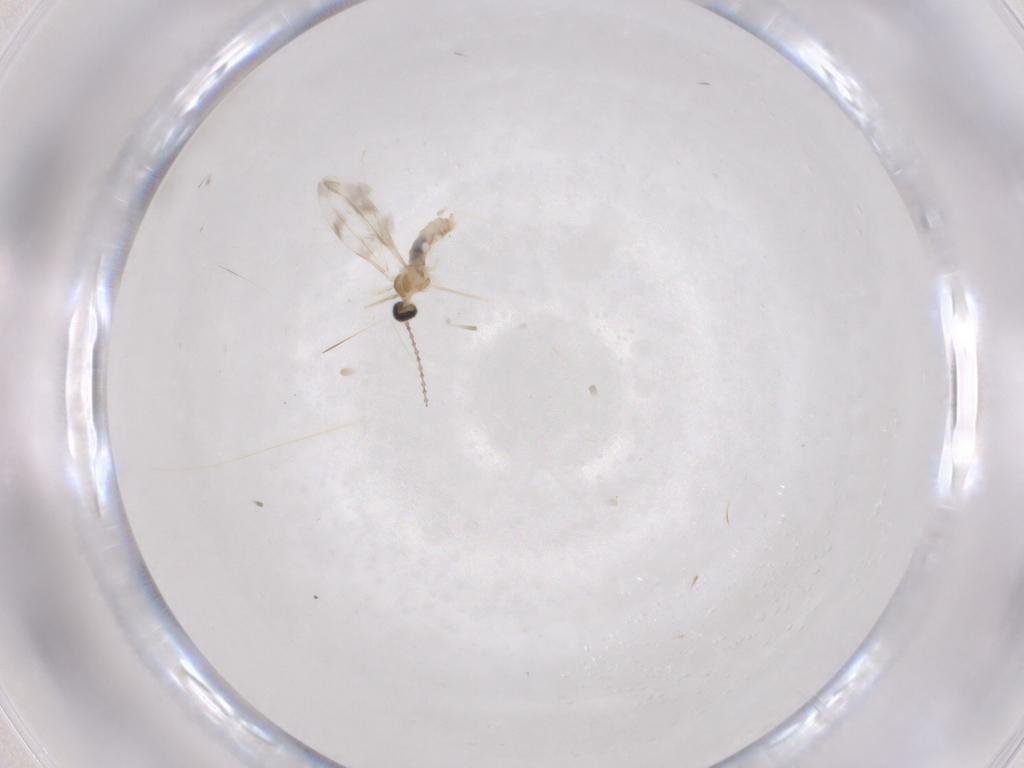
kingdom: Animalia
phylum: Arthropoda
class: Insecta
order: Diptera
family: Cecidomyiidae
